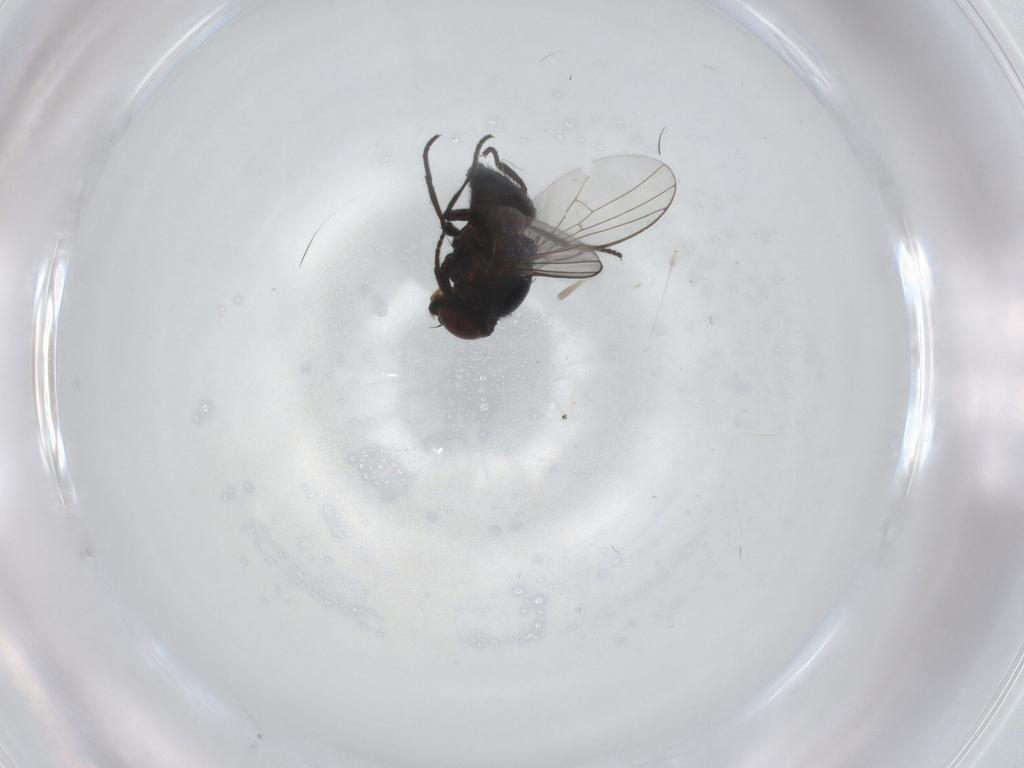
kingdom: Animalia
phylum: Arthropoda
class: Insecta
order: Diptera
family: Agromyzidae
